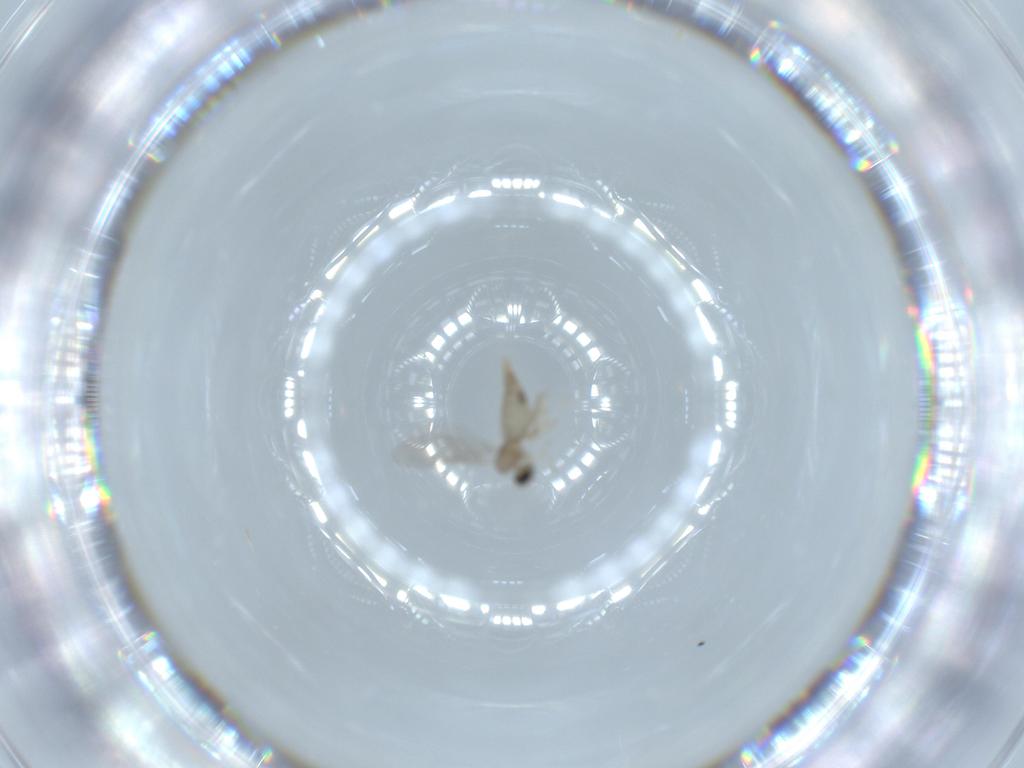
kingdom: Animalia
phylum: Arthropoda
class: Insecta
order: Diptera
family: Cecidomyiidae
